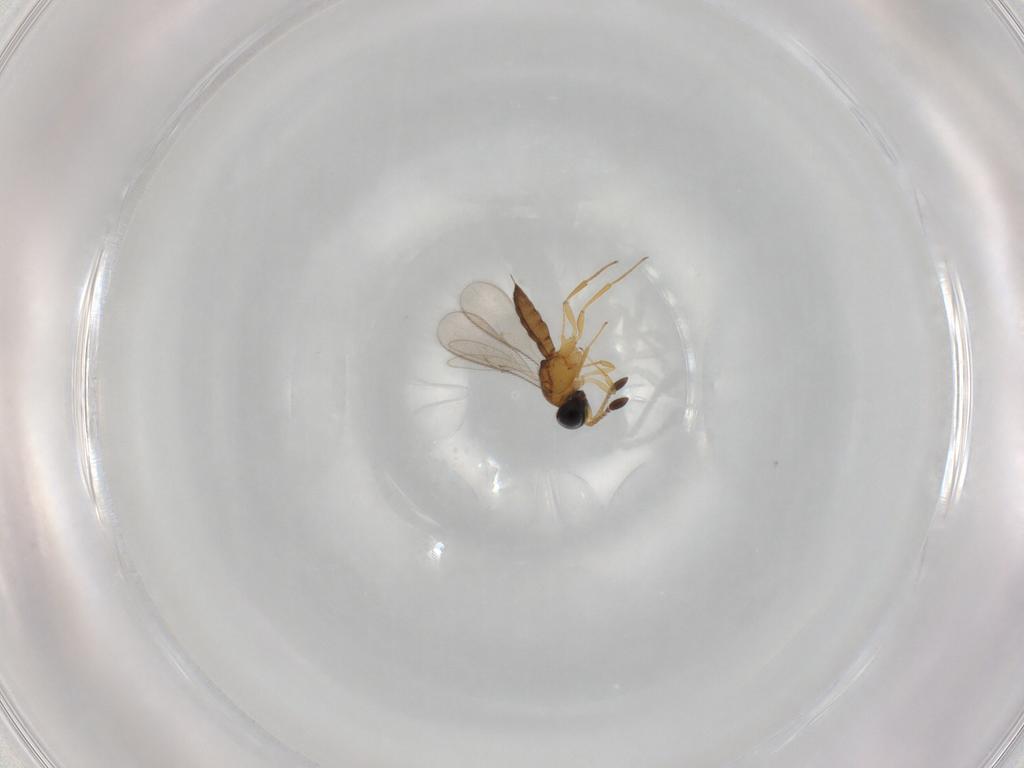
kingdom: Animalia
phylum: Arthropoda
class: Insecta
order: Hymenoptera
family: Scelionidae
